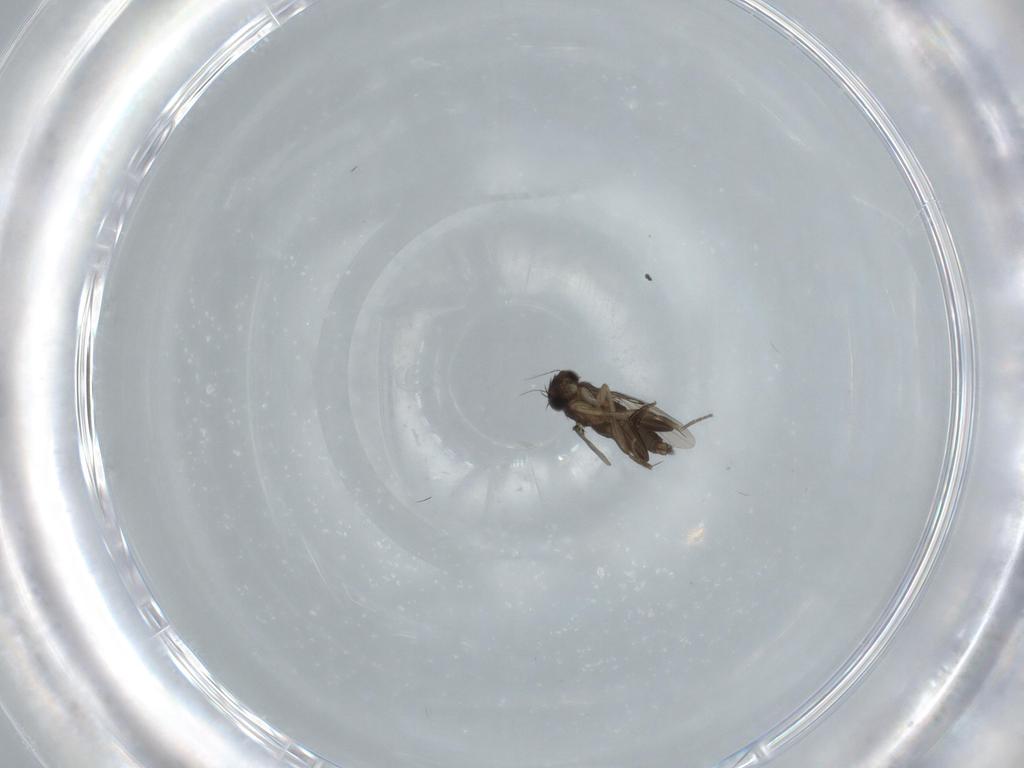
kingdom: Animalia
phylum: Arthropoda
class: Insecta
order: Diptera
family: Phoridae
